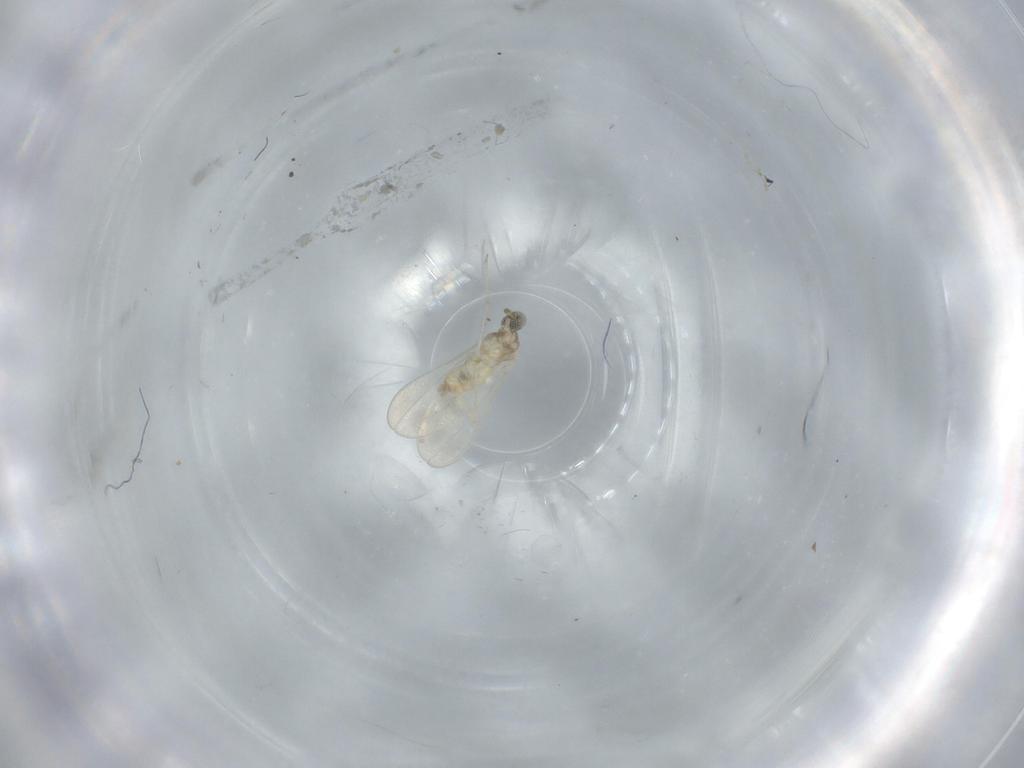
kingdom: Animalia
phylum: Arthropoda
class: Insecta
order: Diptera
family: Cecidomyiidae
